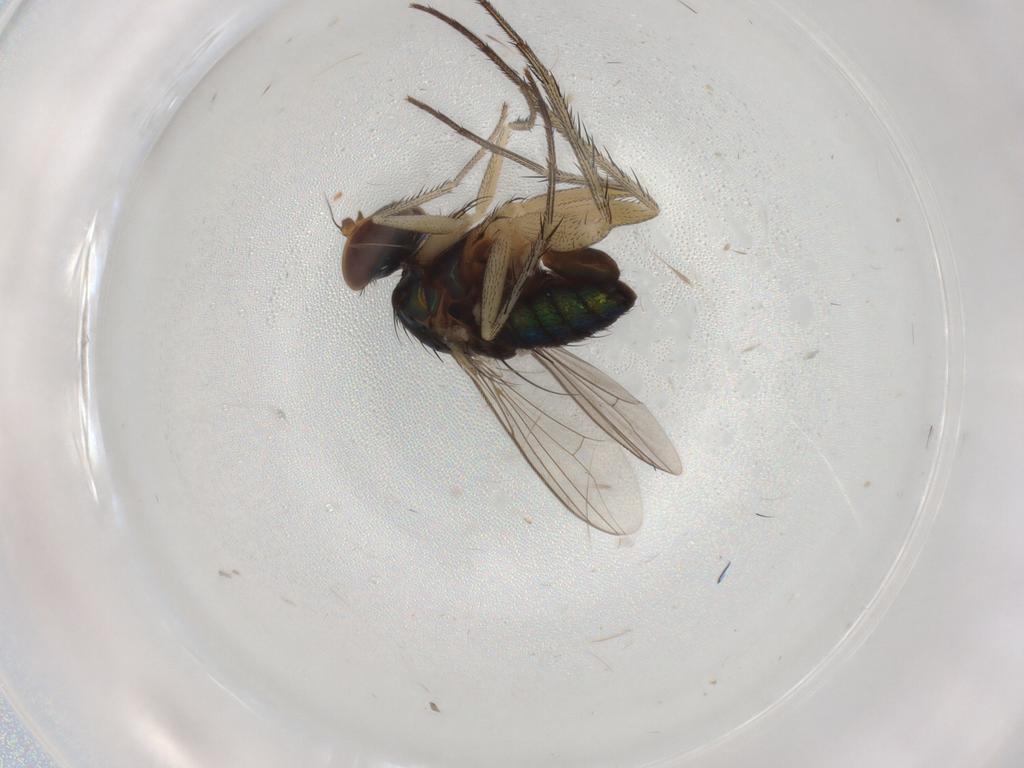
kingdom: Animalia
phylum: Arthropoda
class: Insecta
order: Diptera
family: Dolichopodidae
